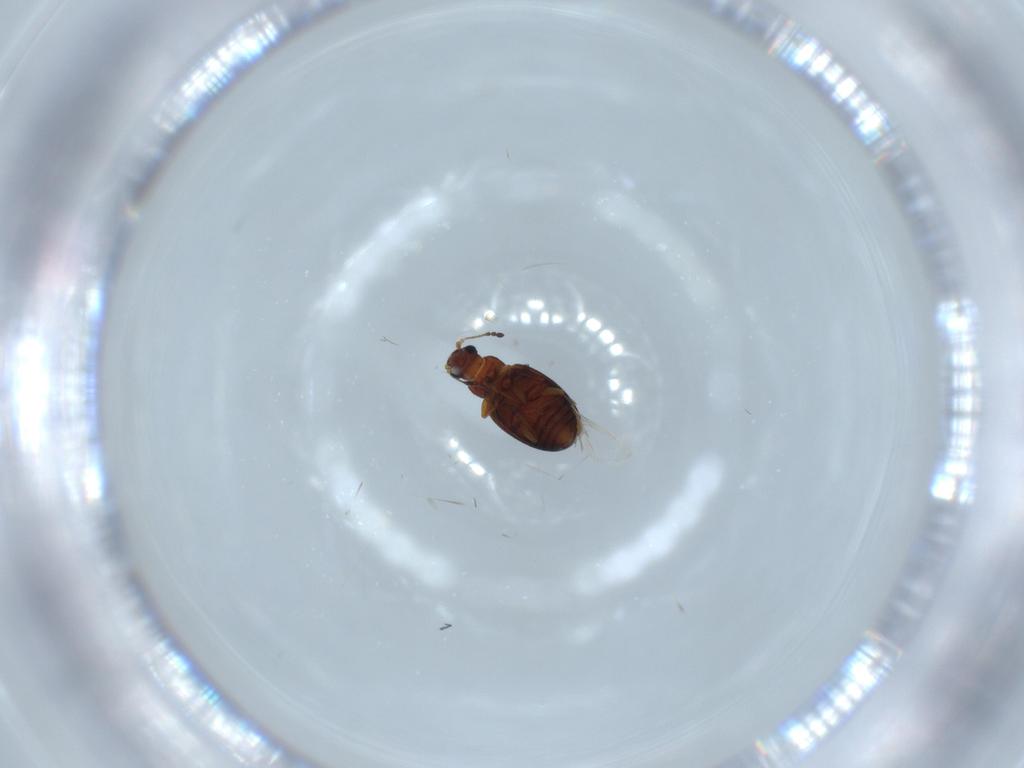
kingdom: Animalia
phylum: Arthropoda
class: Insecta
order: Coleoptera
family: Latridiidae
